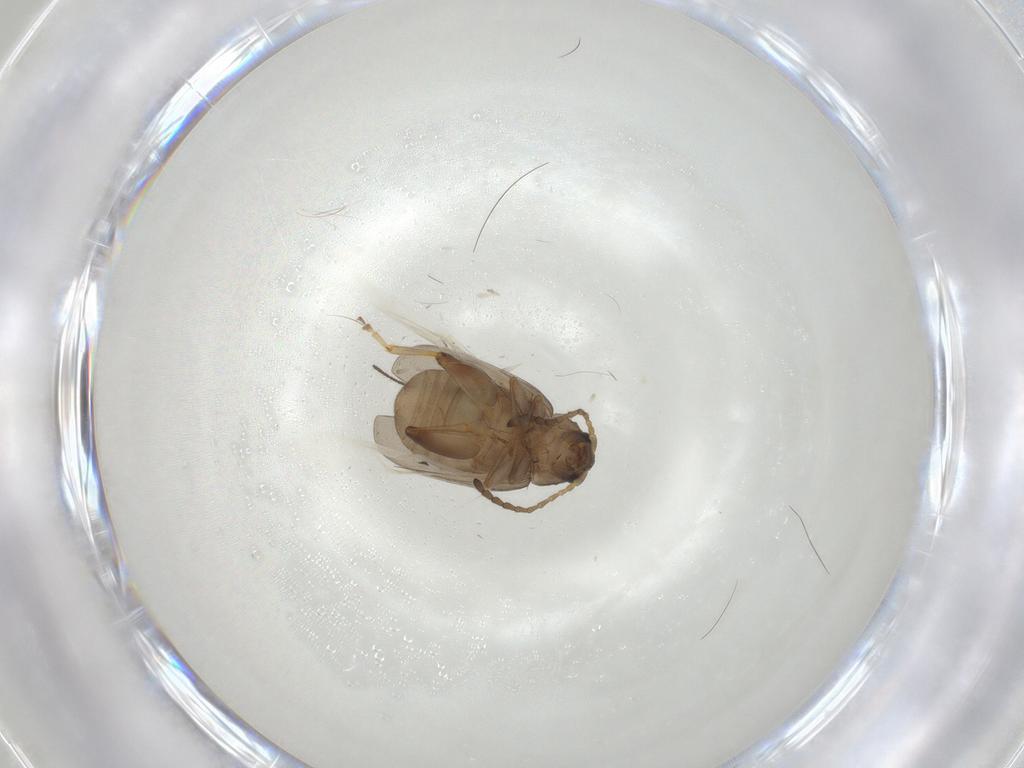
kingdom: Animalia
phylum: Arthropoda
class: Insecta
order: Coleoptera
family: Chrysomelidae
